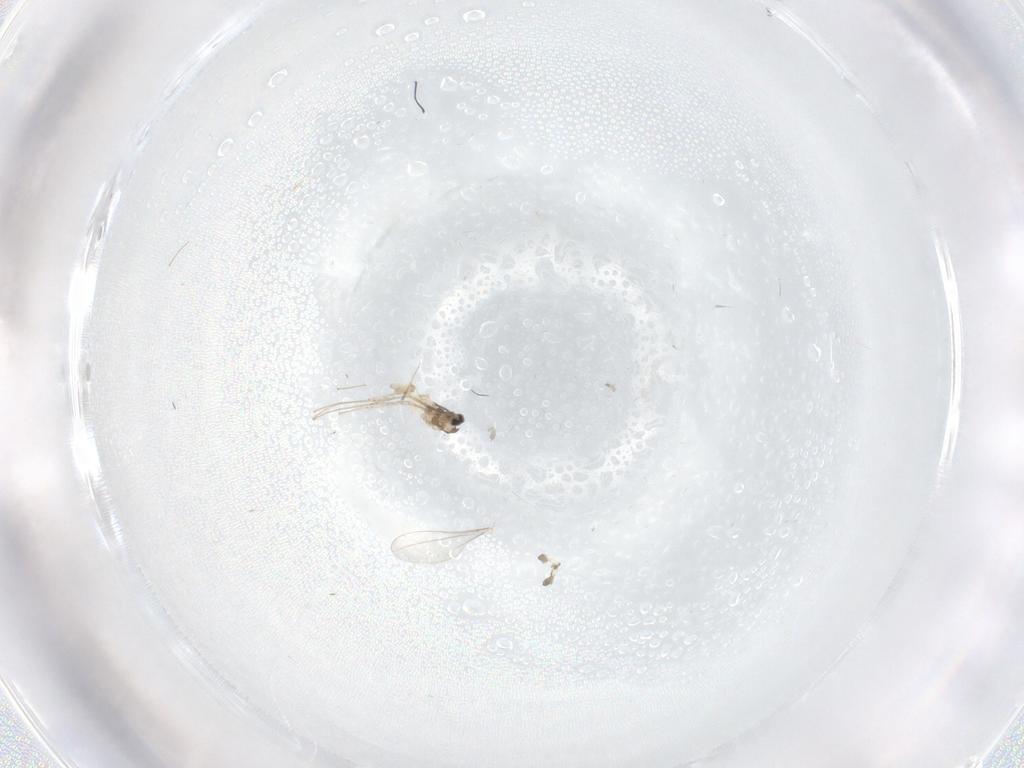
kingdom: Animalia
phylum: Arthropoda
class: Insecta
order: Diptera
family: Cecidomyiidae
